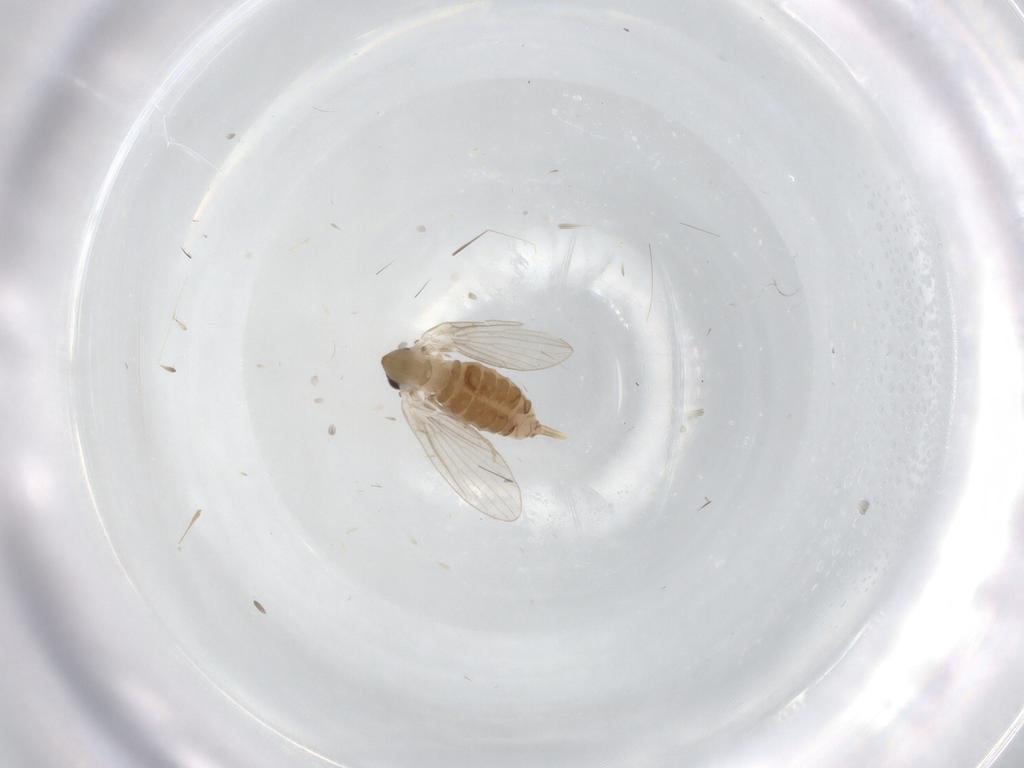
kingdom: Animalia
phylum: Arthropoda
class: Insecta
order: Diptera
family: Psychodidae
